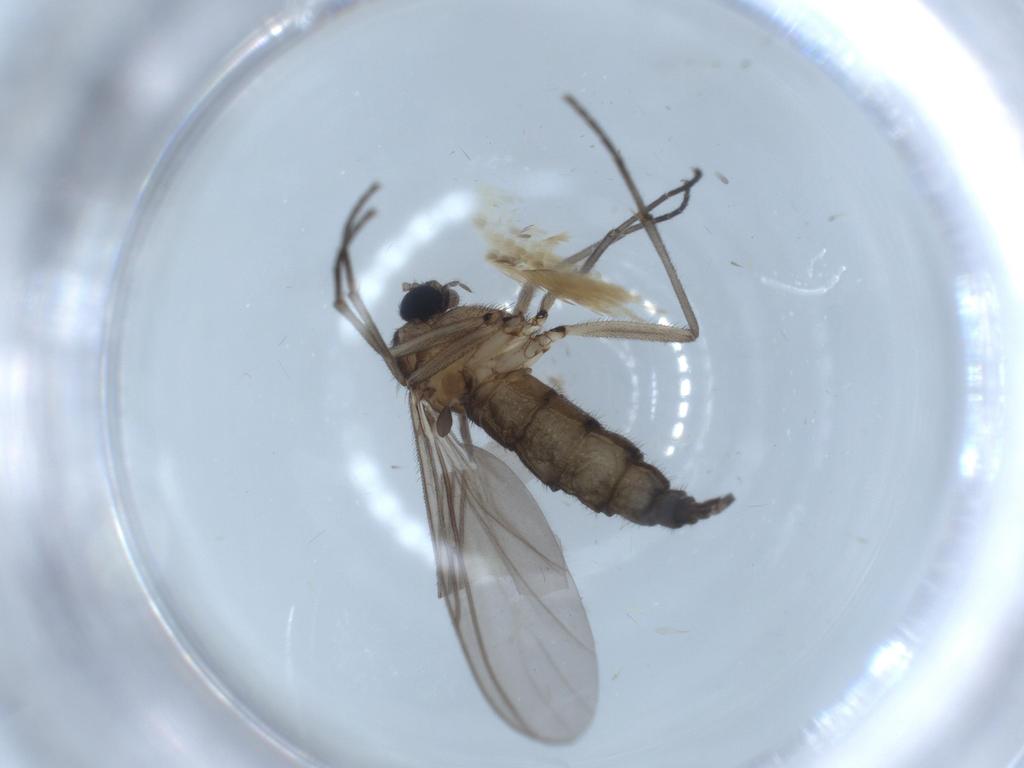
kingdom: Animalia
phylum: Arthropoda
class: Insecta
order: Diptera
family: Sciaridae
